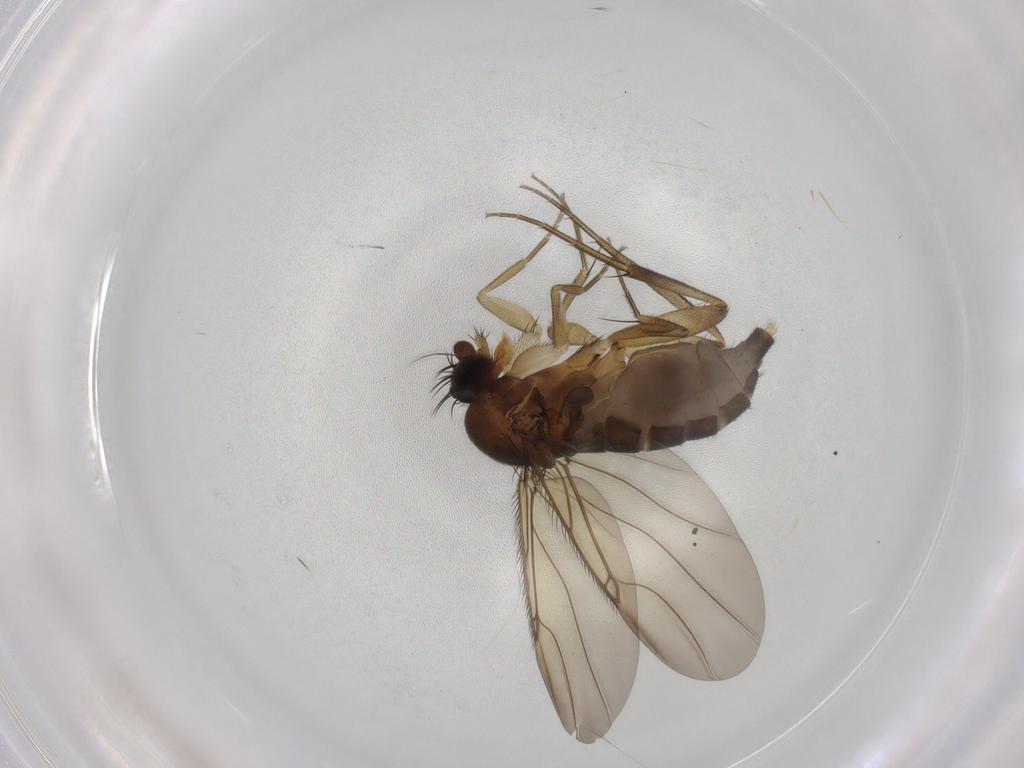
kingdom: Animalia
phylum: Arthropoda
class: Insecta
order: Diptera
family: Phoridae
